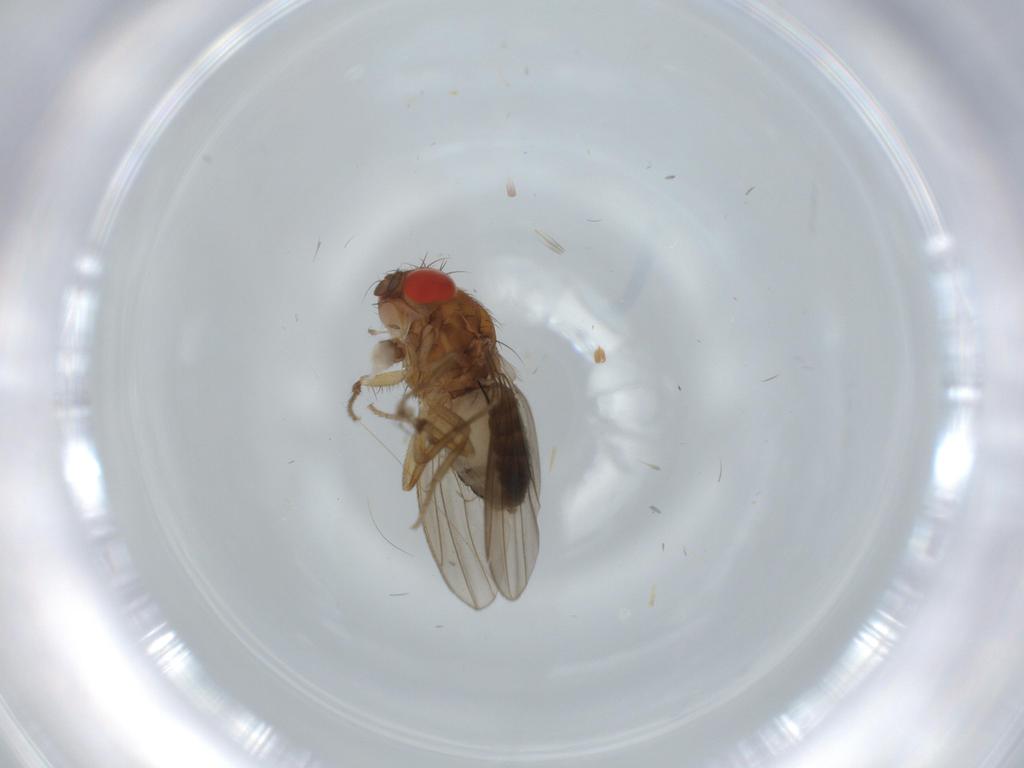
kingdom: Animalia
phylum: Arthropoda
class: Insecta
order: Diptera
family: Drosophilidae
